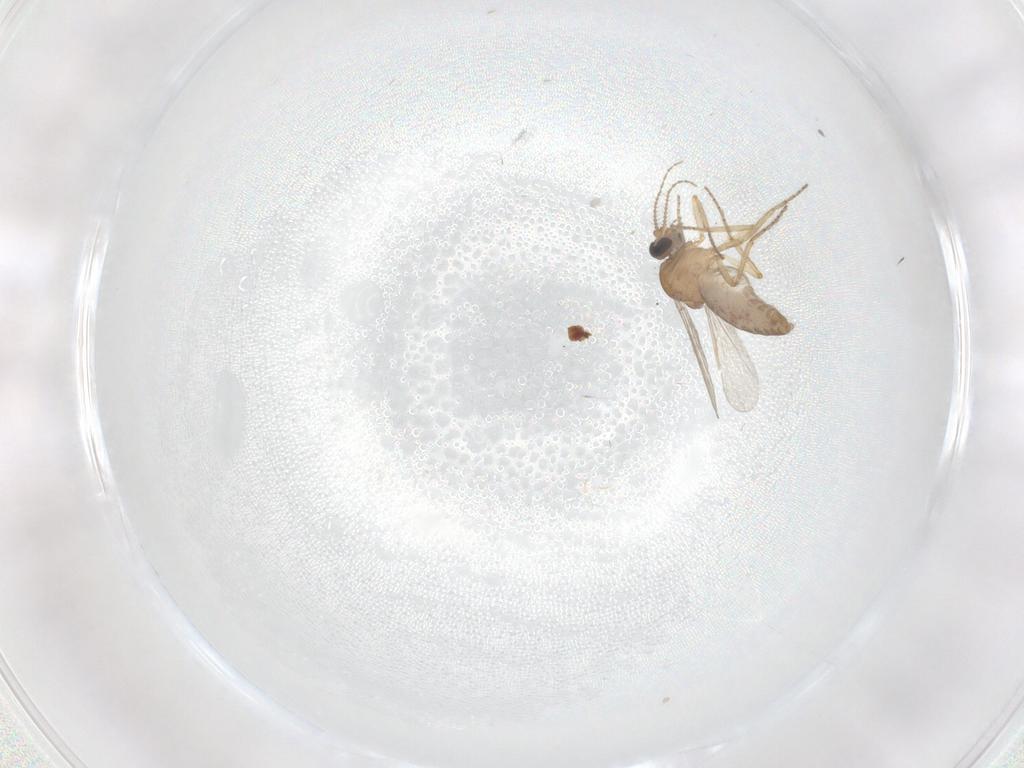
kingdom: Animalia
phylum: Arthropoda
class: Insecta
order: Diptera
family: Ceratopogonidae
